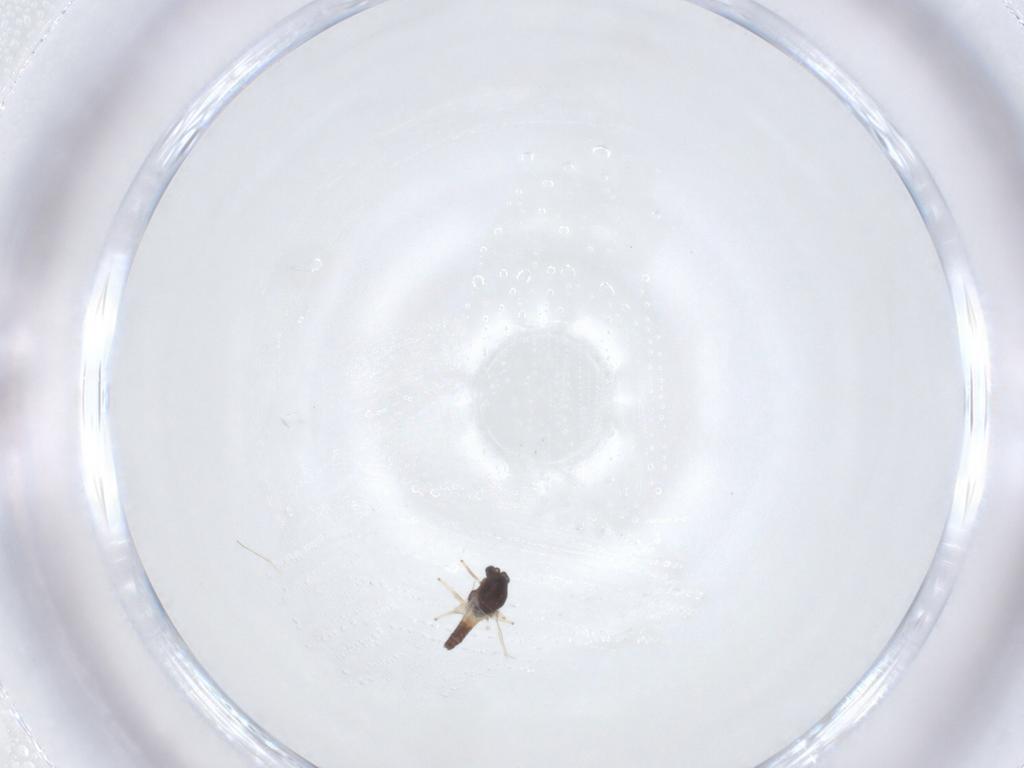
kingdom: Animalia
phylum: Arthropoda
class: Insecta
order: Diptera
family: Chironomidae
